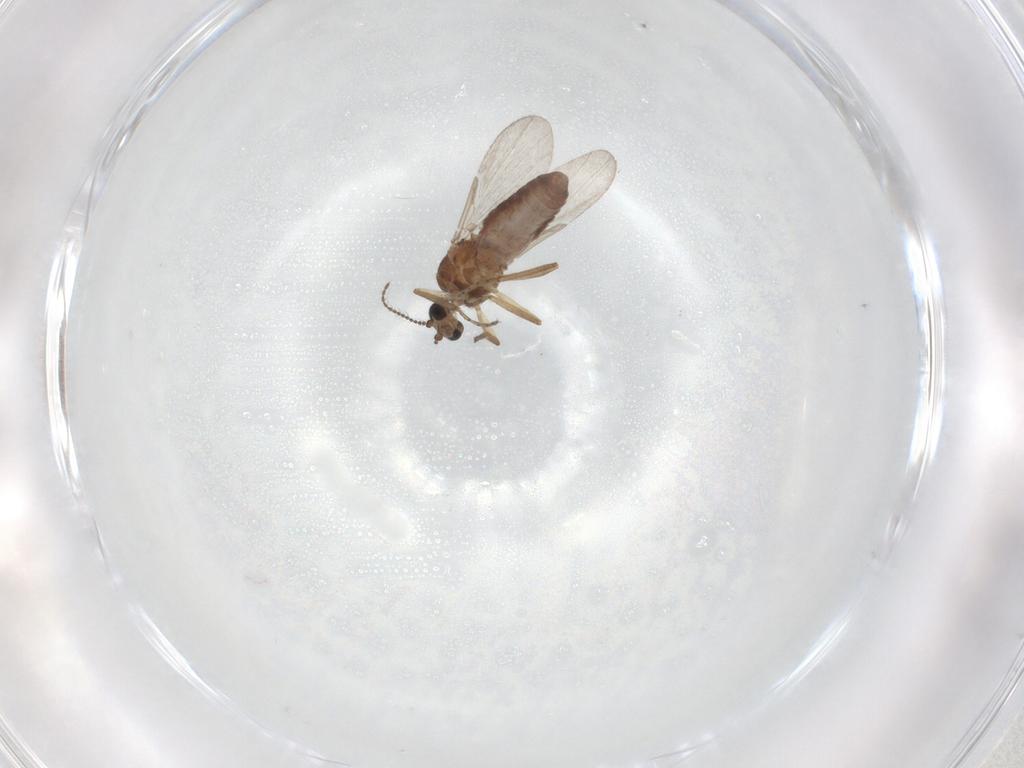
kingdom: Animalia
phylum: Arthropoda
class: Insecta
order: Diptera
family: Ceratopogonidae
